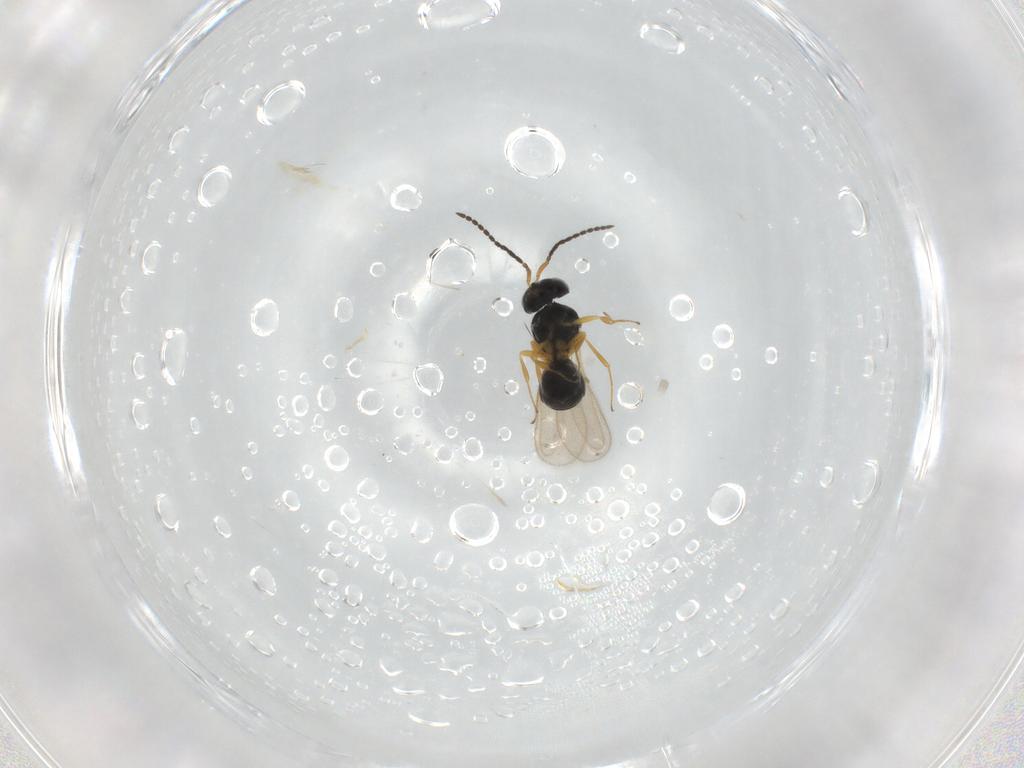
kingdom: Animalia
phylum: Arthropoda
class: Insecta
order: Hymenoptera
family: Scelionidae
